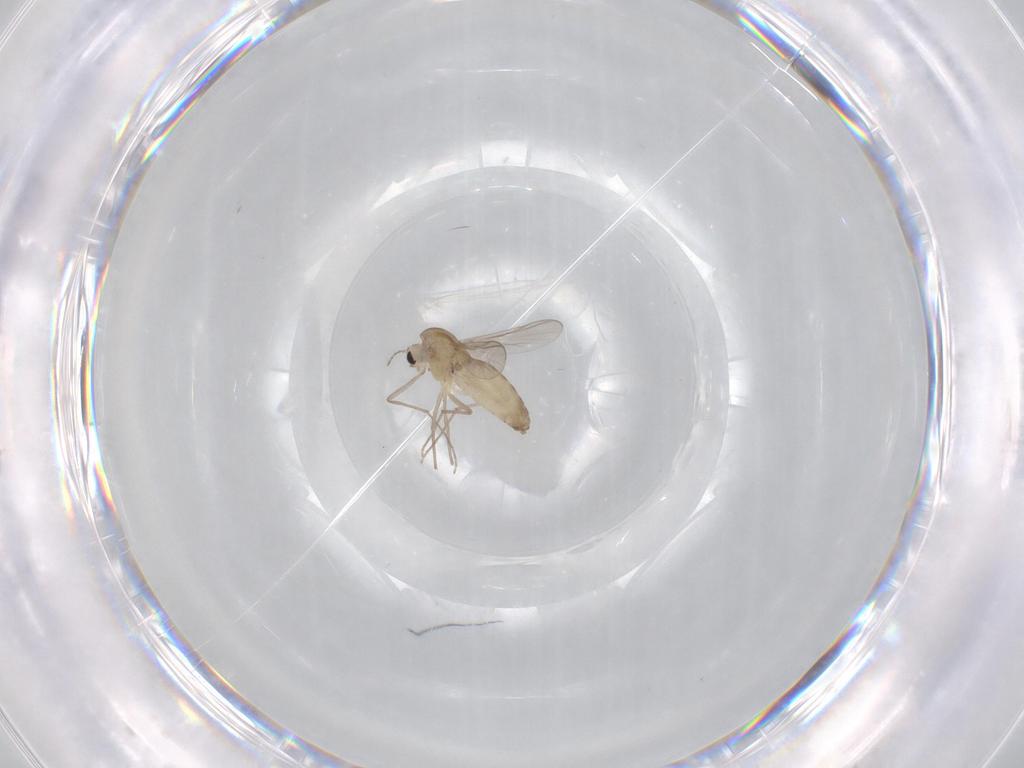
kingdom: Animalia
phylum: Arthropoda
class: Insecta
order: Diptera
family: Chironomidae
